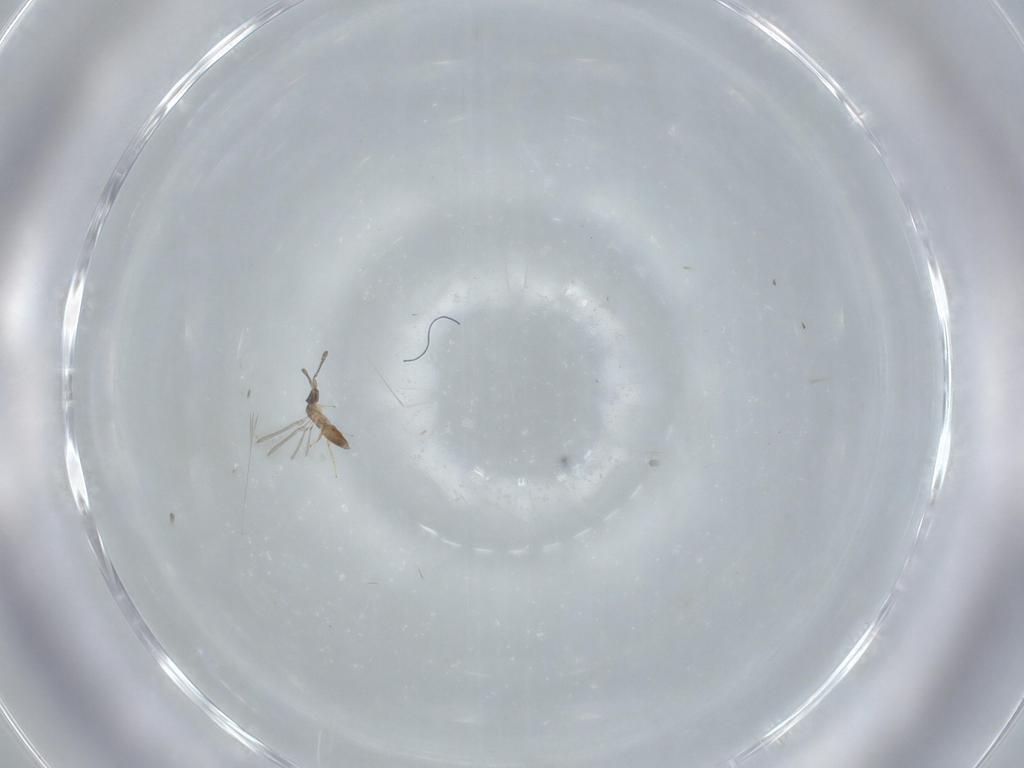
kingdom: Animalia
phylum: Arthropoda
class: Insecta
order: Hymenoptera
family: Mymaridae
